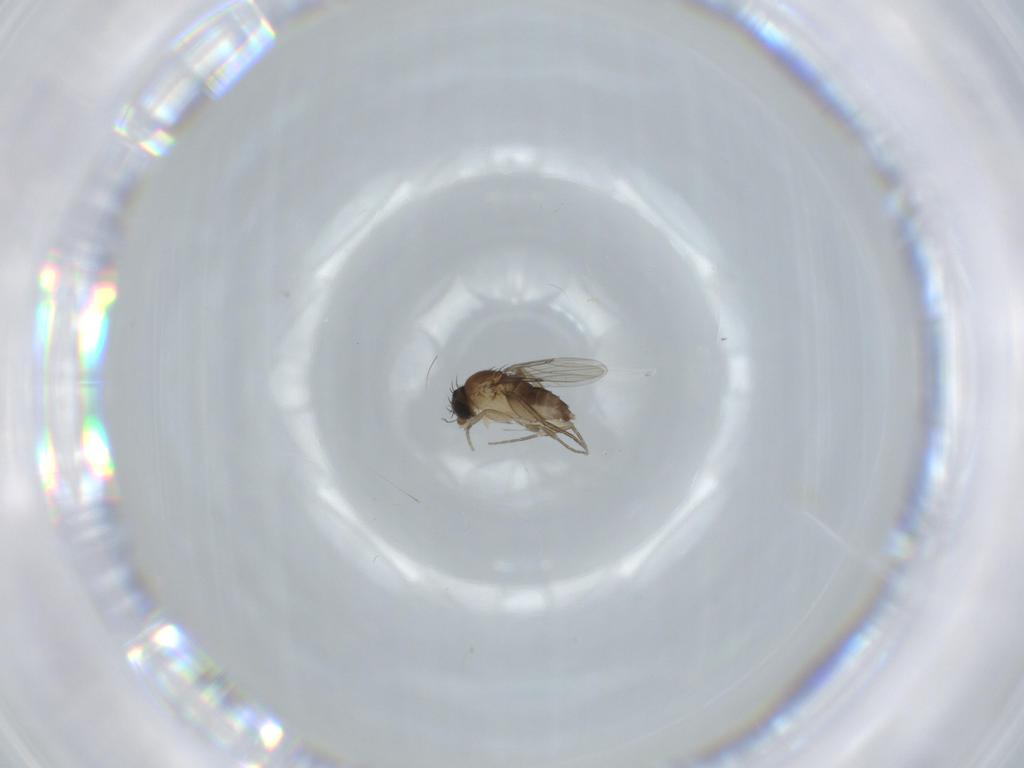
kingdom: Animalia
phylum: Arthropoda
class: Insecta
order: Diptera
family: Phoridae
